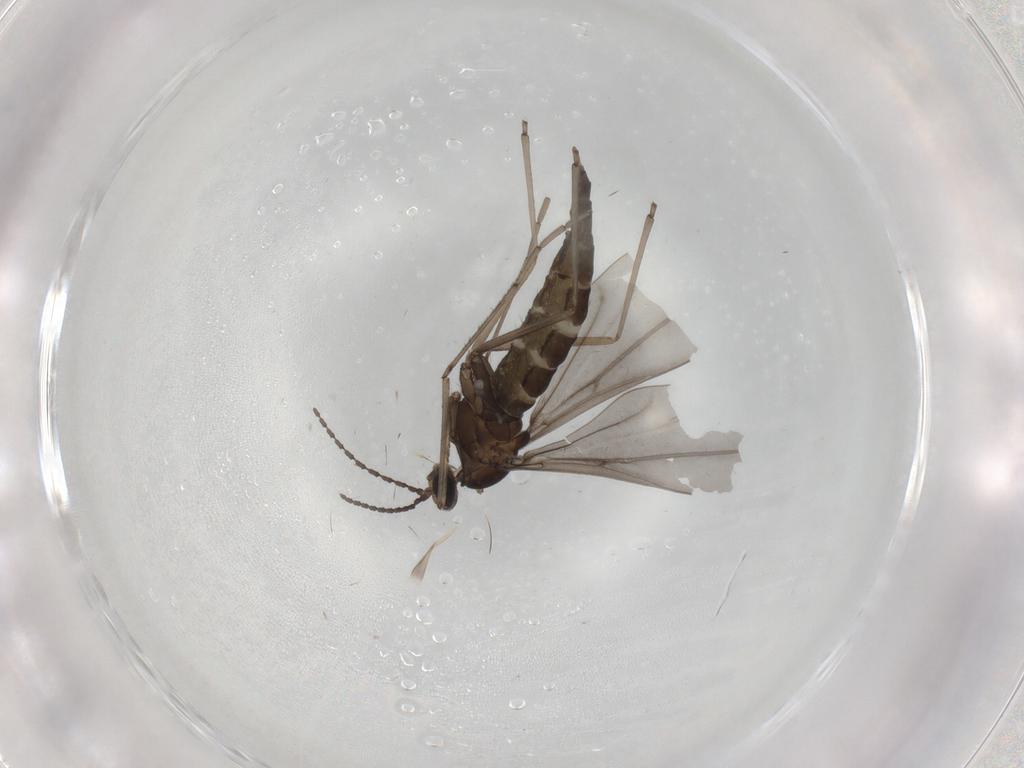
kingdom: Animalia
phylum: Arthropoda
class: Insecta
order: Diptera
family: Cecidomyiidae
